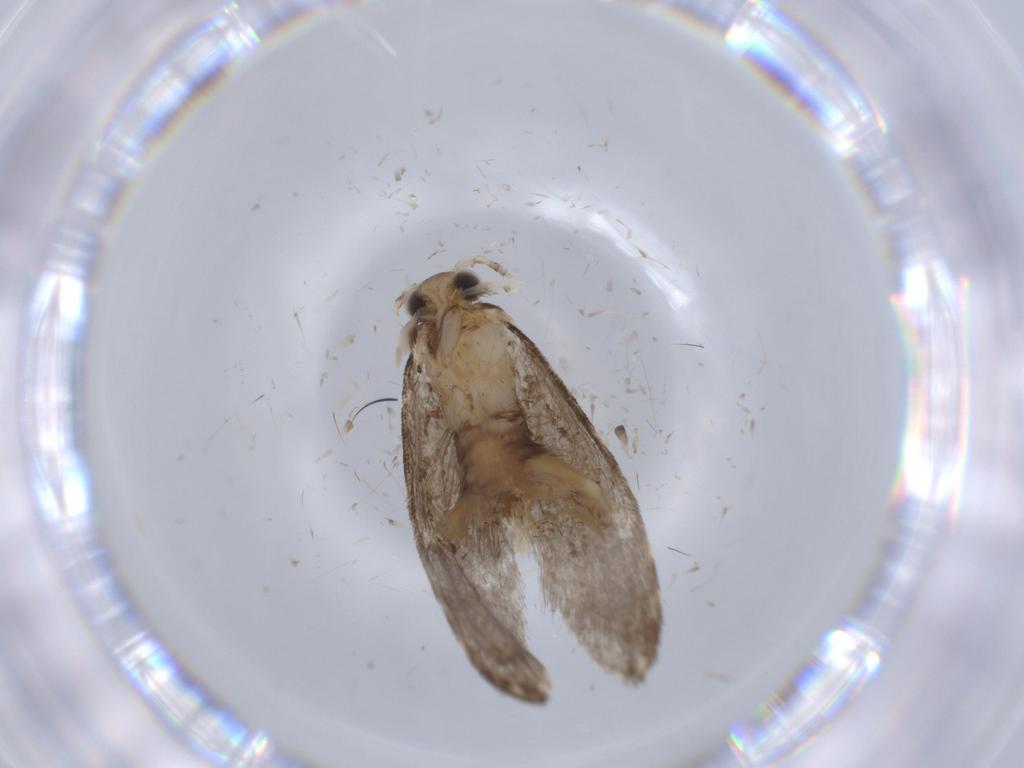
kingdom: Animalia
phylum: Arthropoda
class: Insecta
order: Lepidoptera
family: Tineidae
